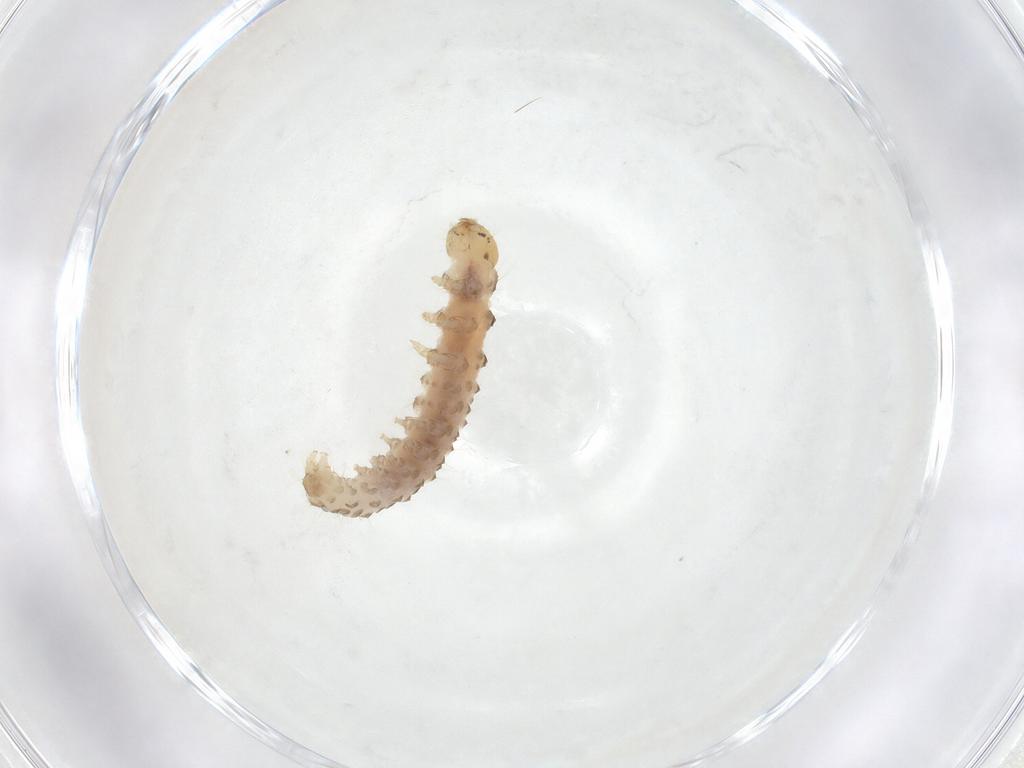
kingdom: Animalia
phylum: Arthropoda
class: Insecta
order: Lepidoptera
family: Crambidae
